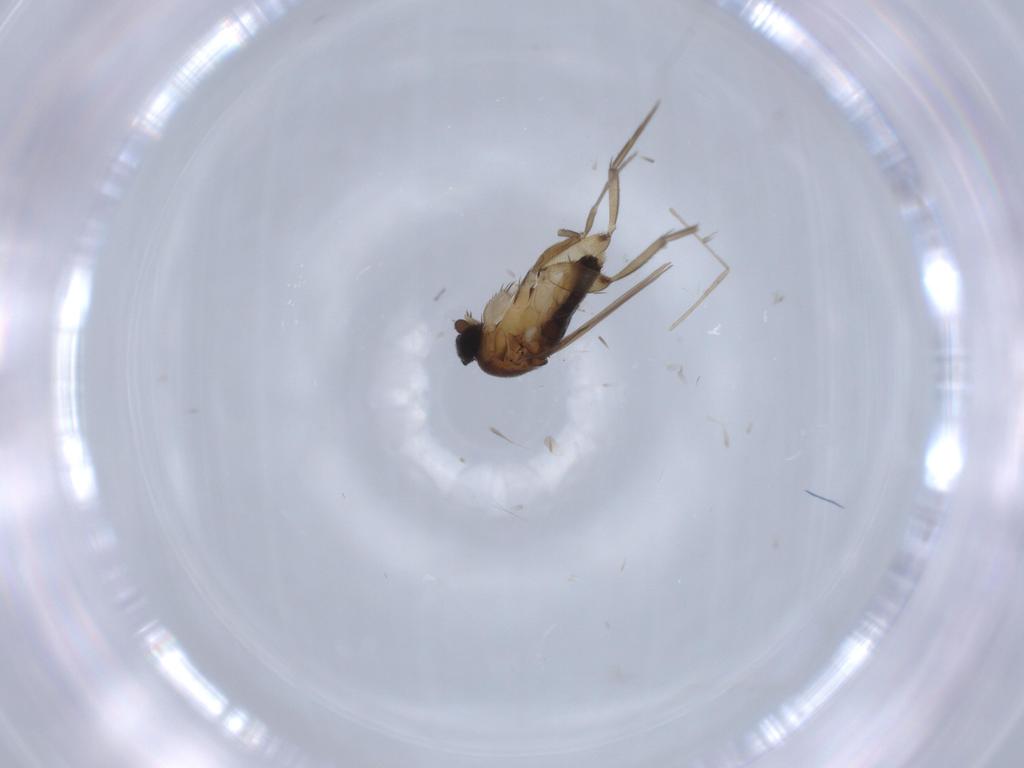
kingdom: Animalia
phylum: Arthropoda
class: Insecta
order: Diptera
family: Phoridae
